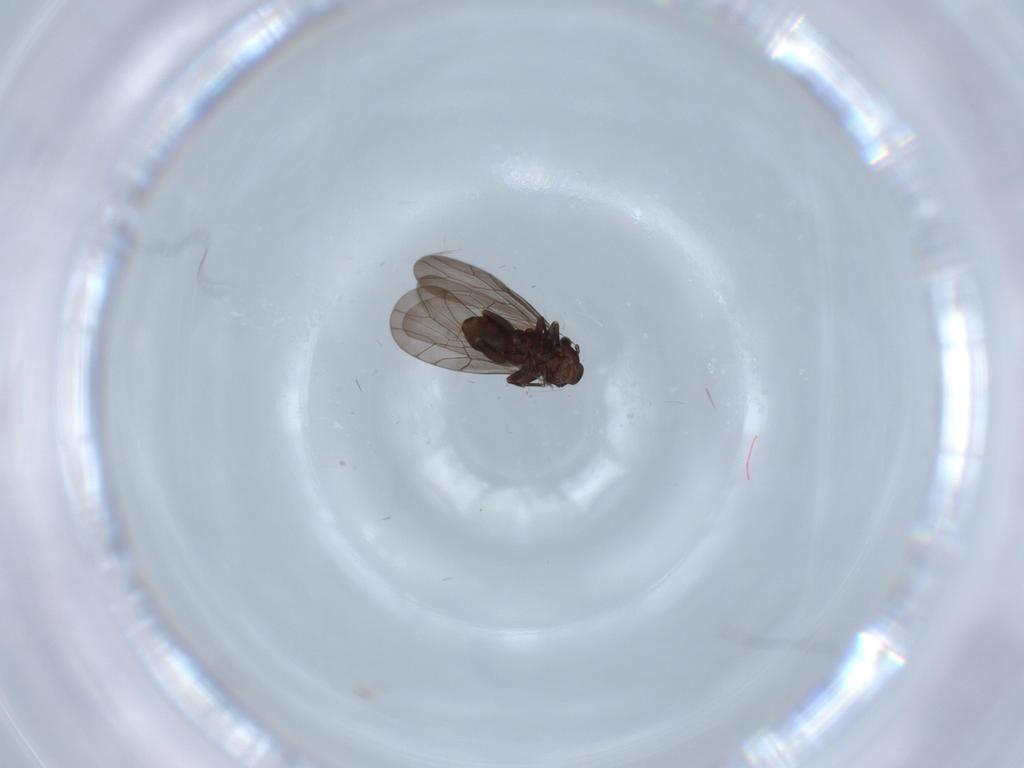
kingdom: Animalia
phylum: Arthropoda
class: Insecta
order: Psocodea
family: Lepidopsocidae
